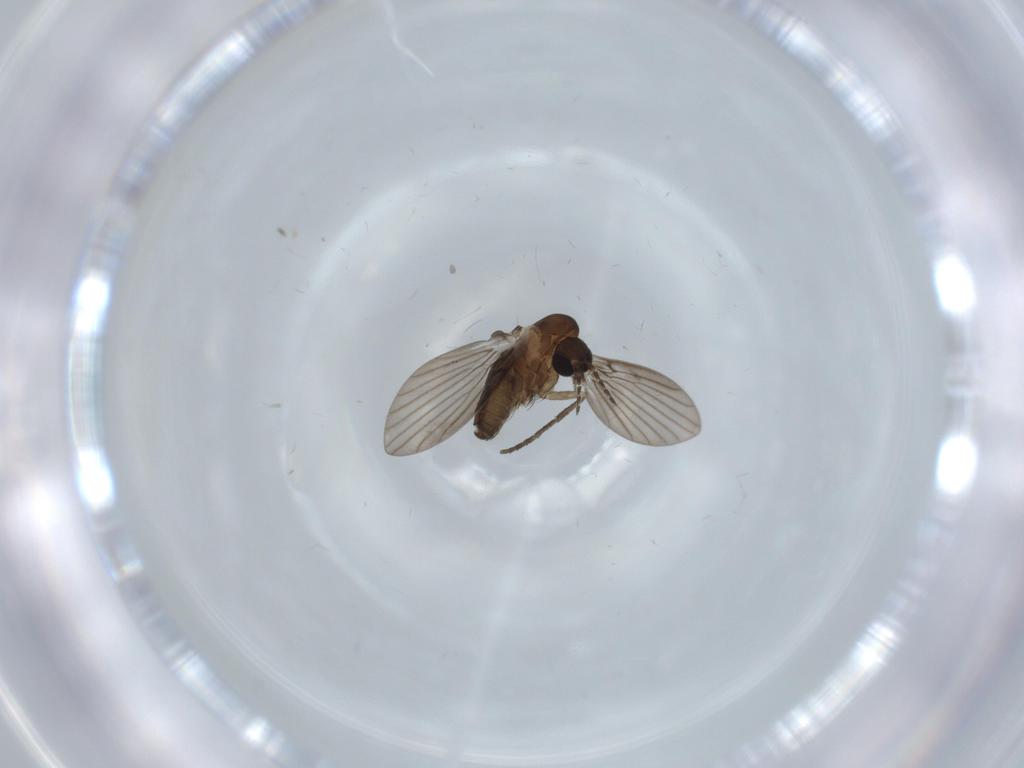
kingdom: Animalia
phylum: Arthropoda
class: Insecta
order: Diptera
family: Psychodidae
